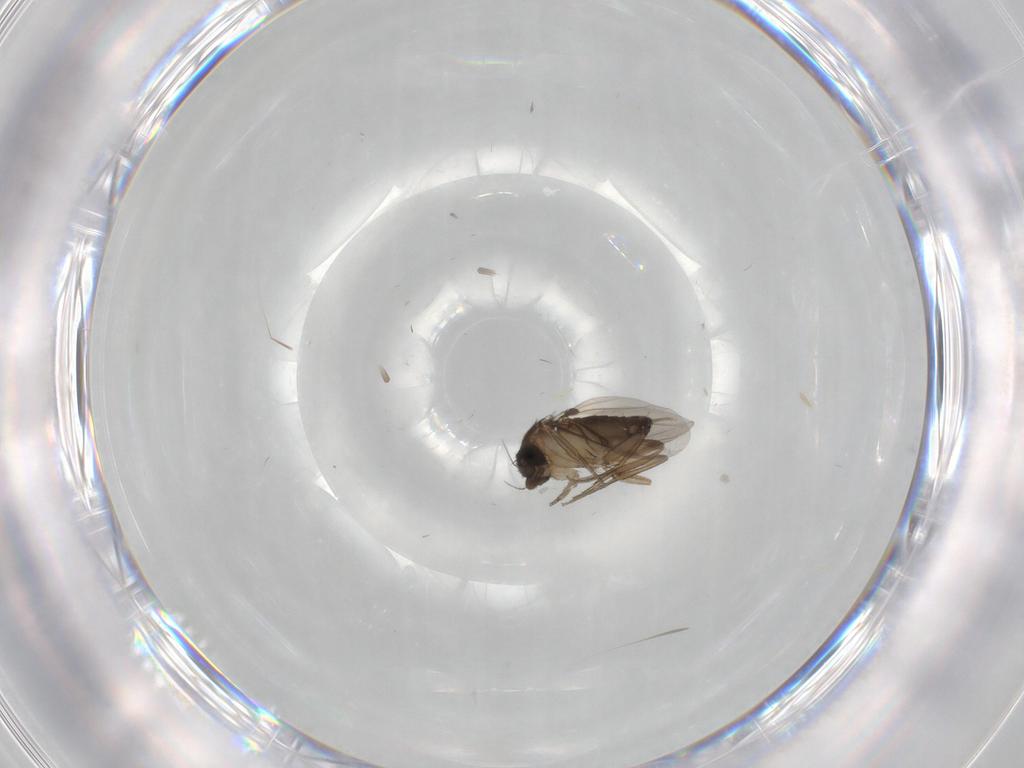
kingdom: Animalia
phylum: Arthropoda
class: Insecta
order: Diptera
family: Phoridae
